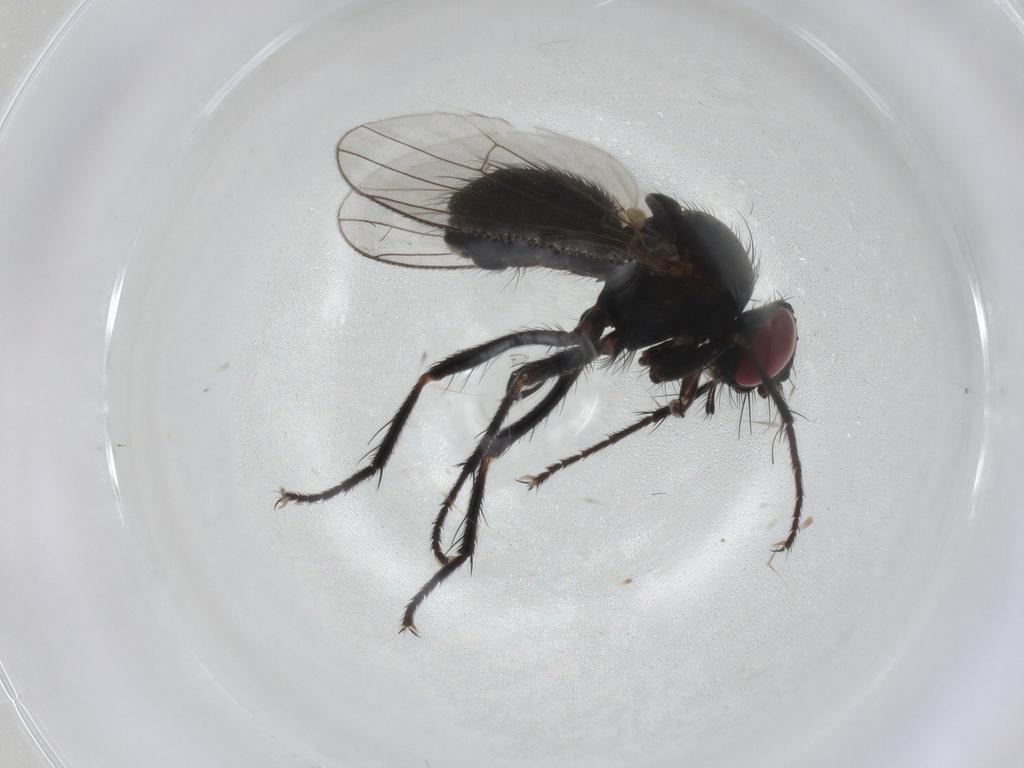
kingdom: Animalia
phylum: Arthropoda
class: Insecta
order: Diptera
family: Muscidae
